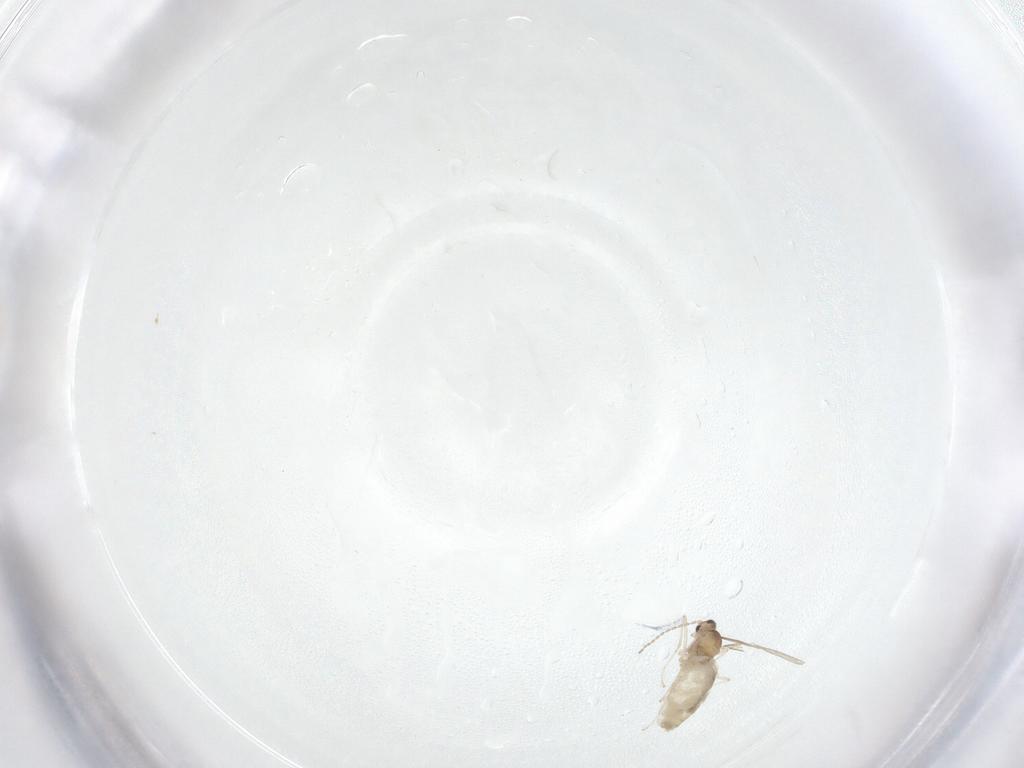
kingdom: Animalia
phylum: Arthropoda
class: Insecta
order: Diptera
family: Cecidomyiidae
